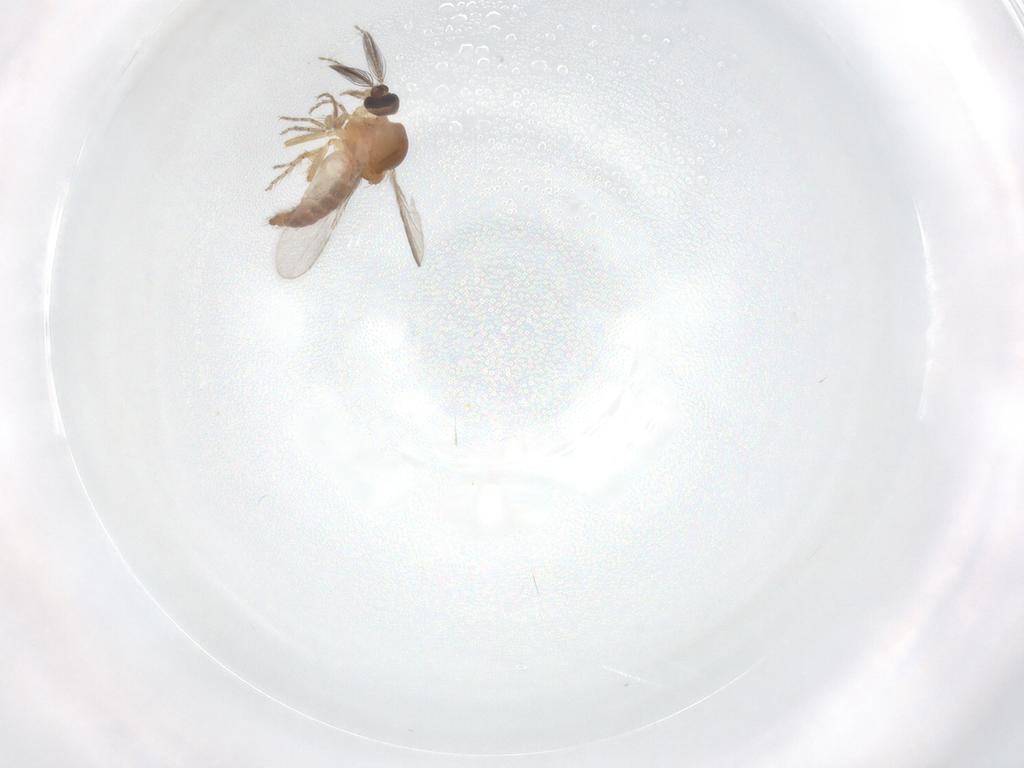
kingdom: Animalia
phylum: Arthropoda
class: Insecta
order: Diptera
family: Ceratopogonidae
